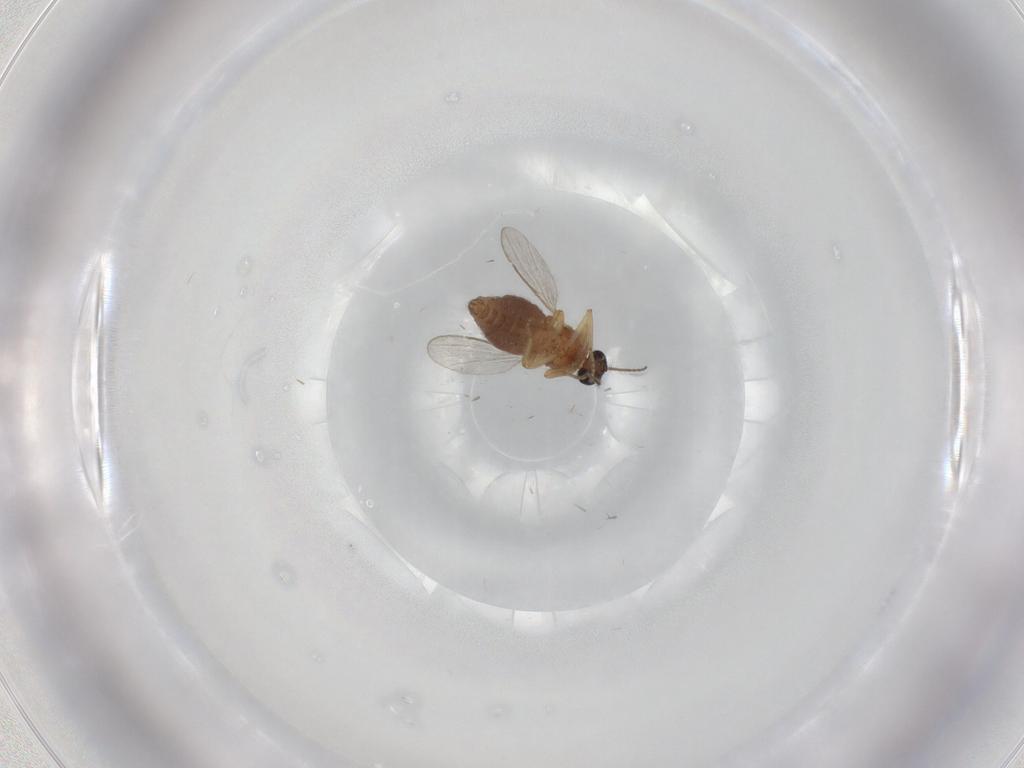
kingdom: Animalia
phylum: Arthropoda
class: Insecta
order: Diptera
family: Ceratopogonidae
